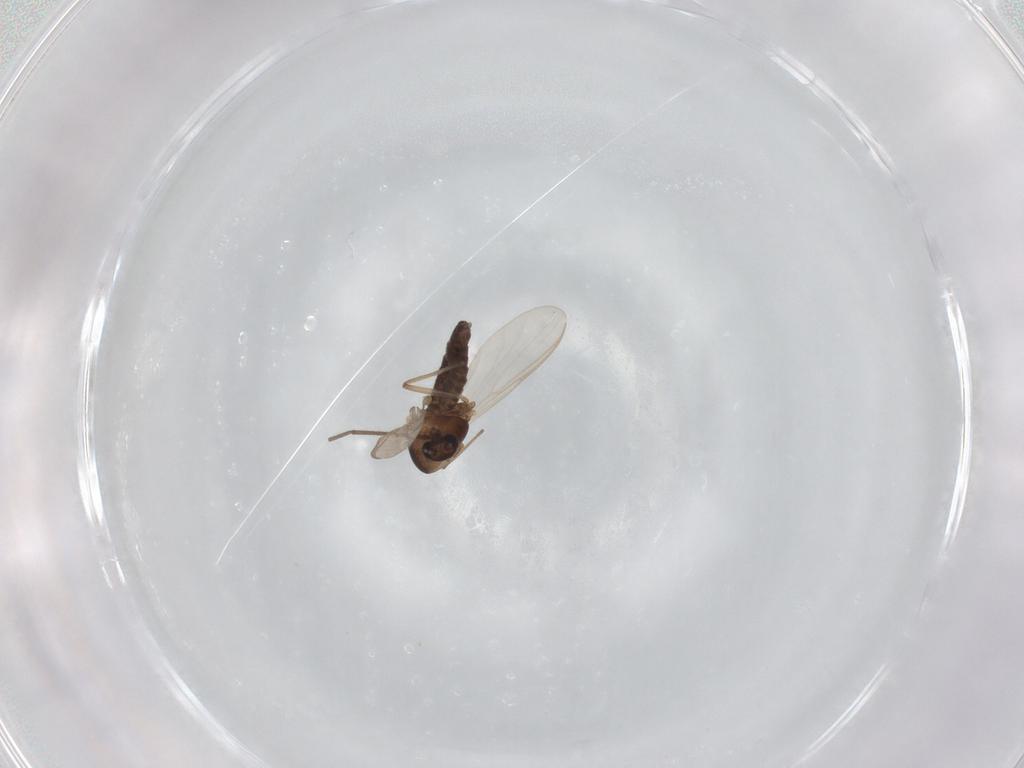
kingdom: Animalia
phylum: Arthropoda
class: Insecta
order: Diptera
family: Chironomidae
